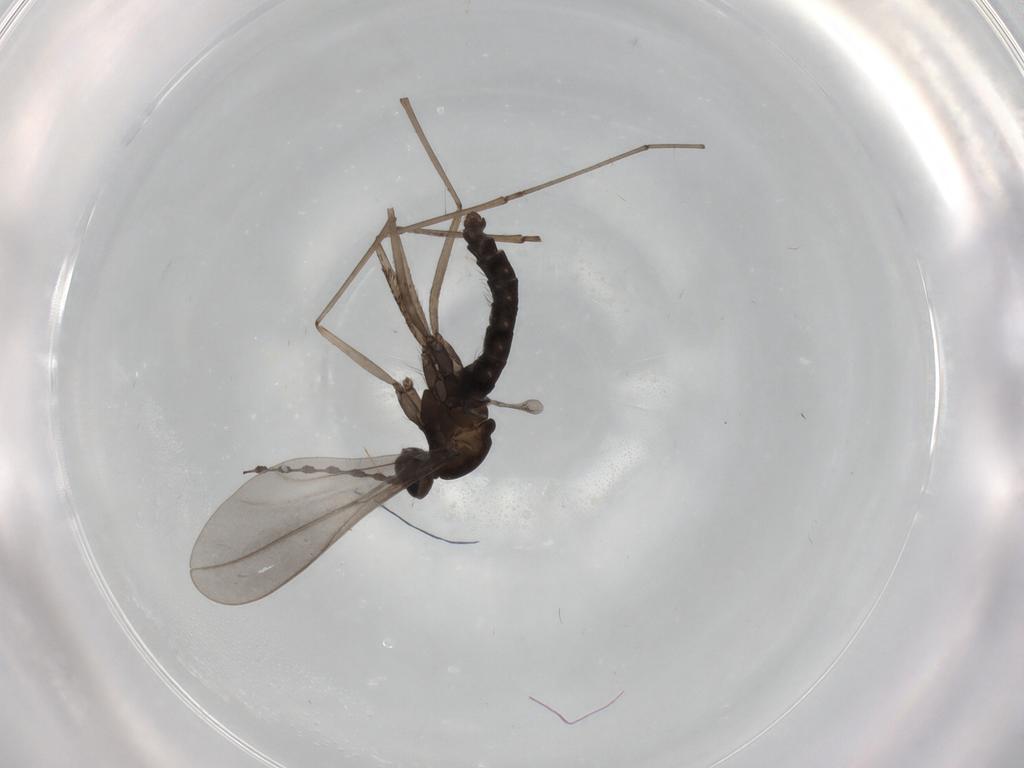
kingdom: Animalia
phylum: Arthropoda
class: Insecta
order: Diptera
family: Cecidomyiidae
